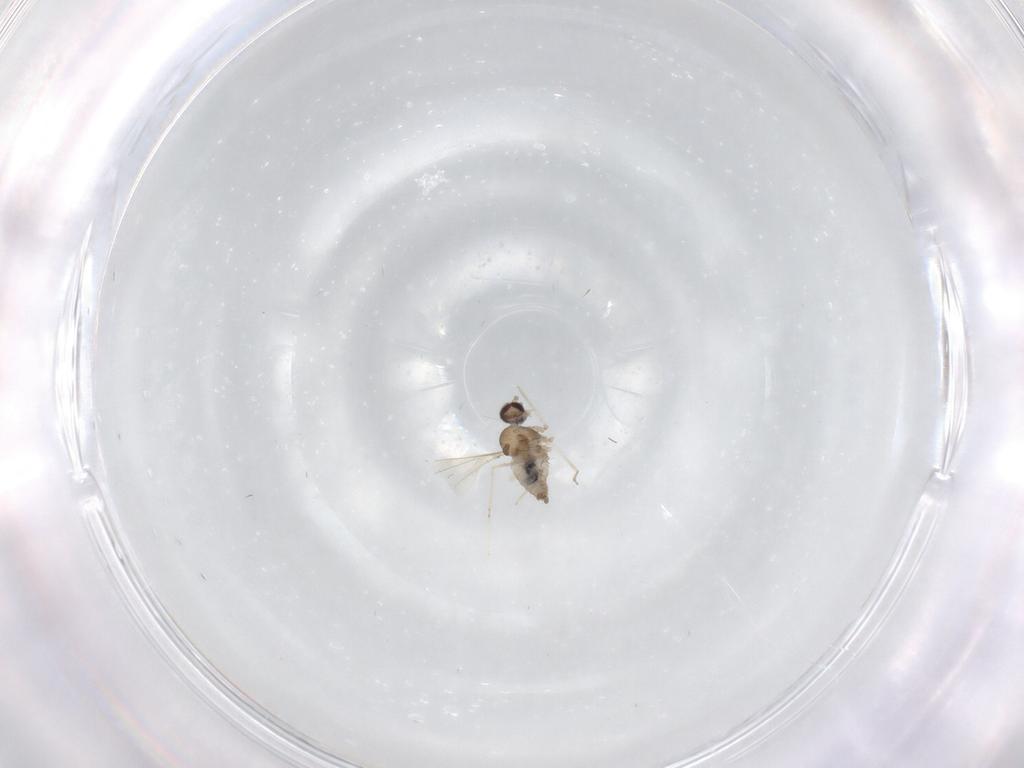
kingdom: Animalia
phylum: Arthropoda
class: Insecta
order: Diptera
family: Cecidomyiidae
